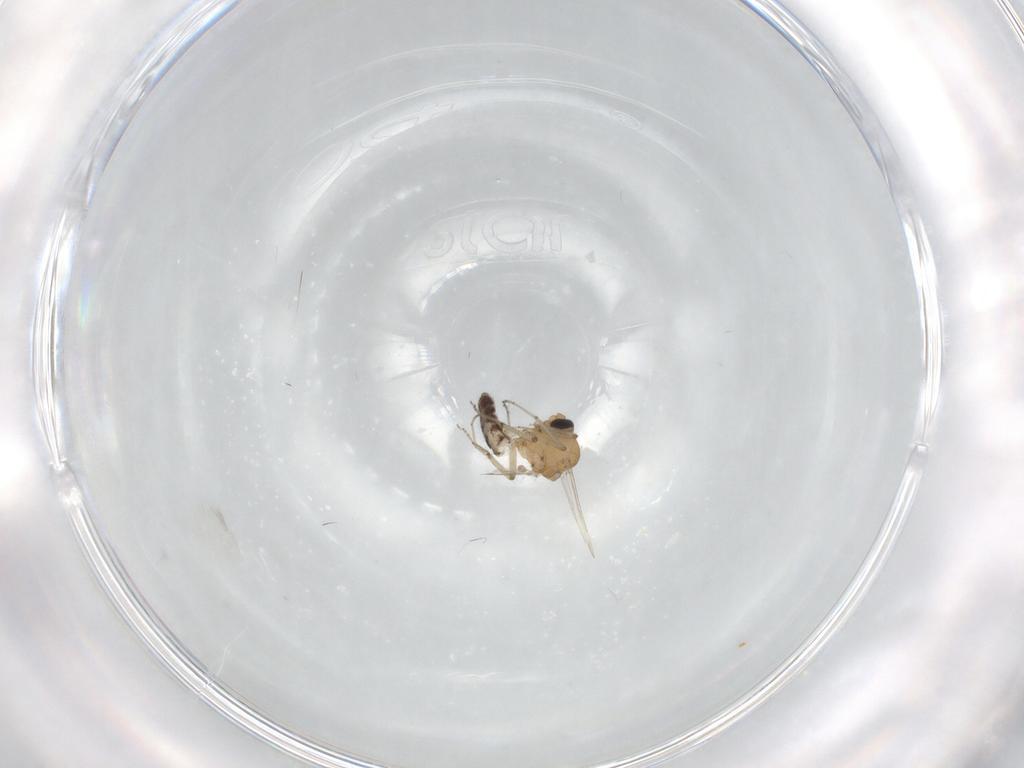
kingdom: Animalia
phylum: Arthropoda
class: Insecta
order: Diptera
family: Ceratopogonidae
